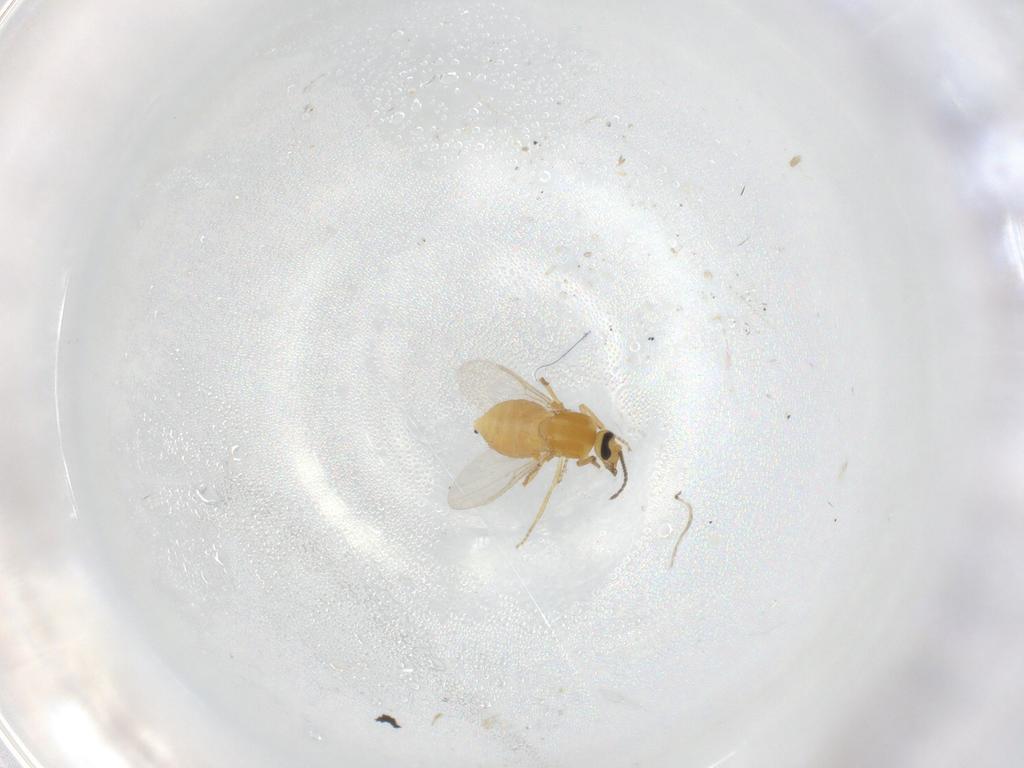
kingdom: Animalia
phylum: Arthropoda
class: Insecta
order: Diptera
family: Ceratopogonidae
